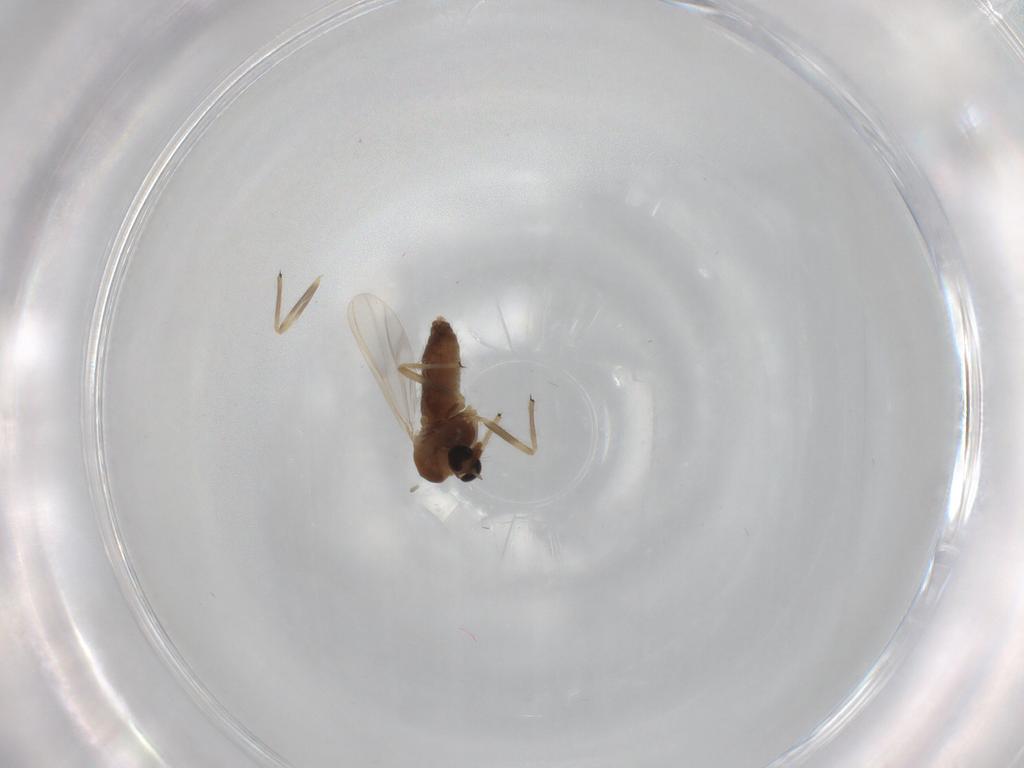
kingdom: Animalia
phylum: Arthropoda
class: Insecta
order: Diptera
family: Chironomidae
